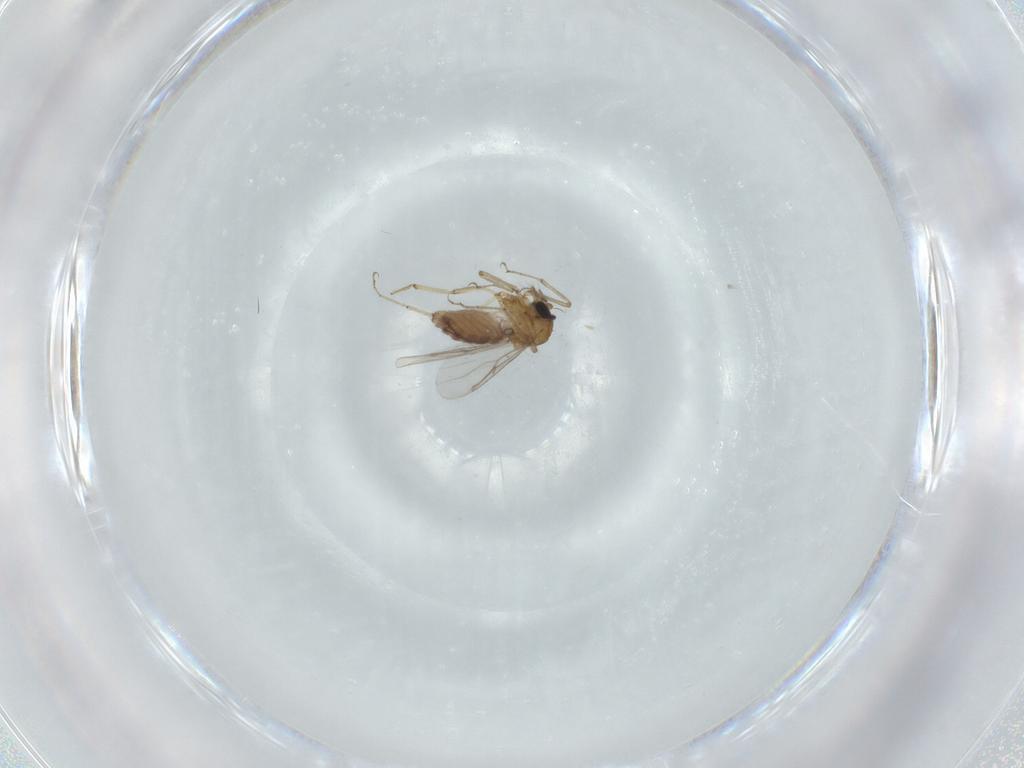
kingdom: Animalia
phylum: Arthropoda
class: Insecta
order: Diptera
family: Ceratopogonidae
